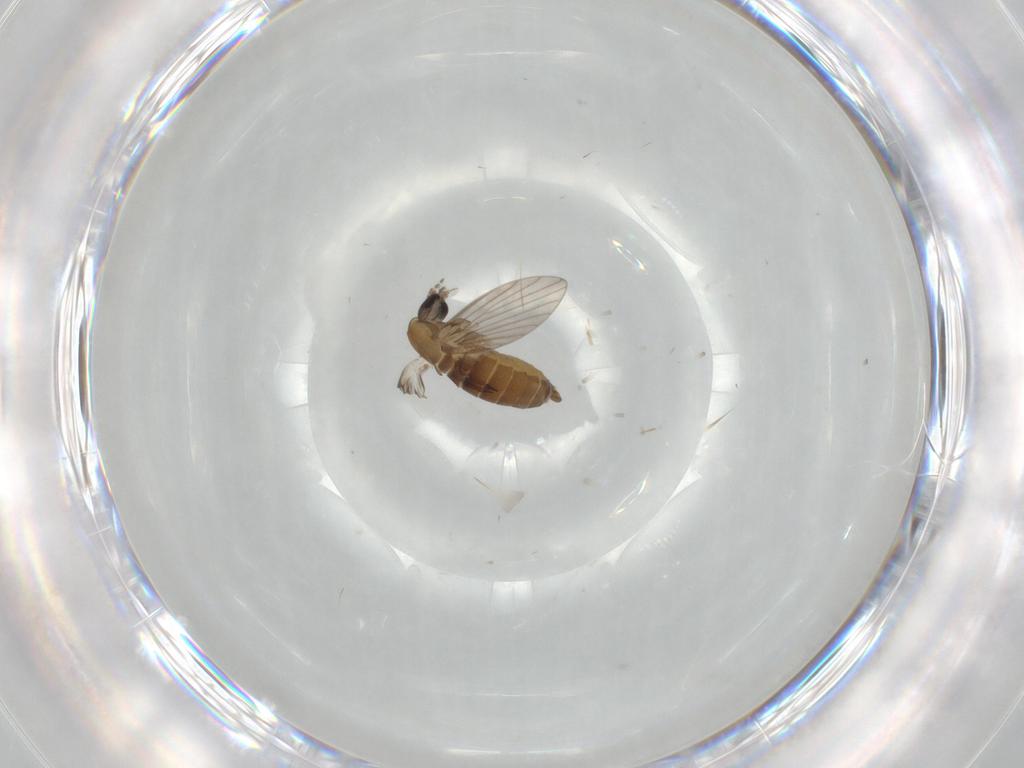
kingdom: Animalia
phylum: Arthropoda
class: Insecta
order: Diptera
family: Psychodidae
